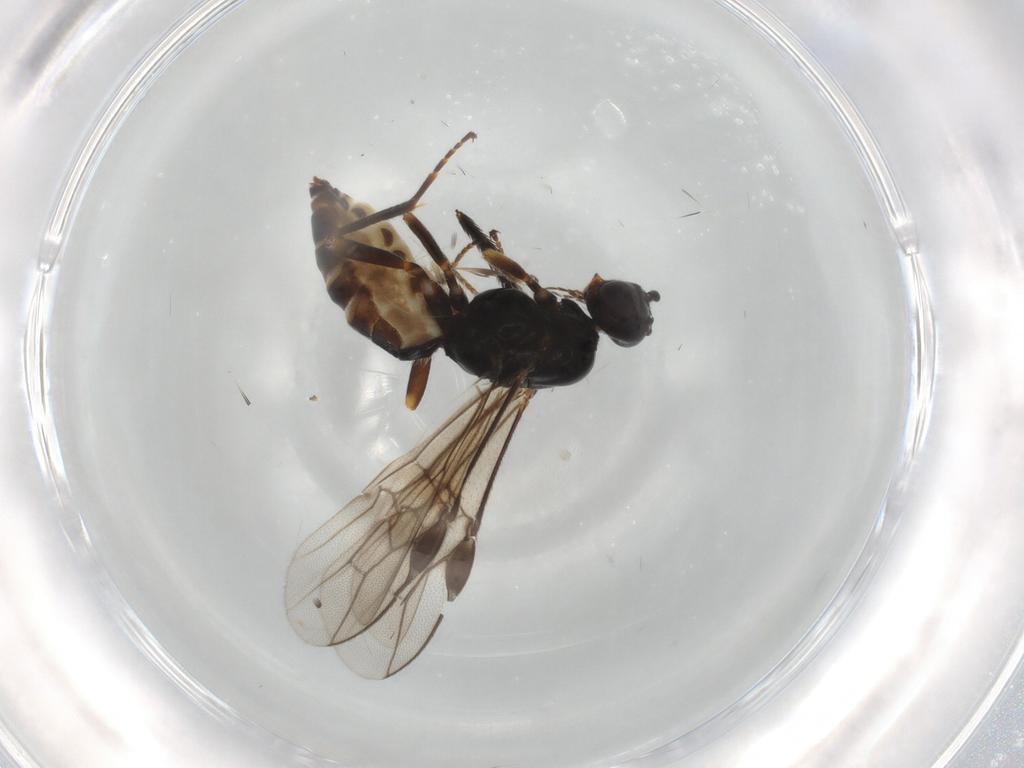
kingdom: Animalia
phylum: Arthropoda
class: Insecta
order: Hymenoptera
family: Braconidae
